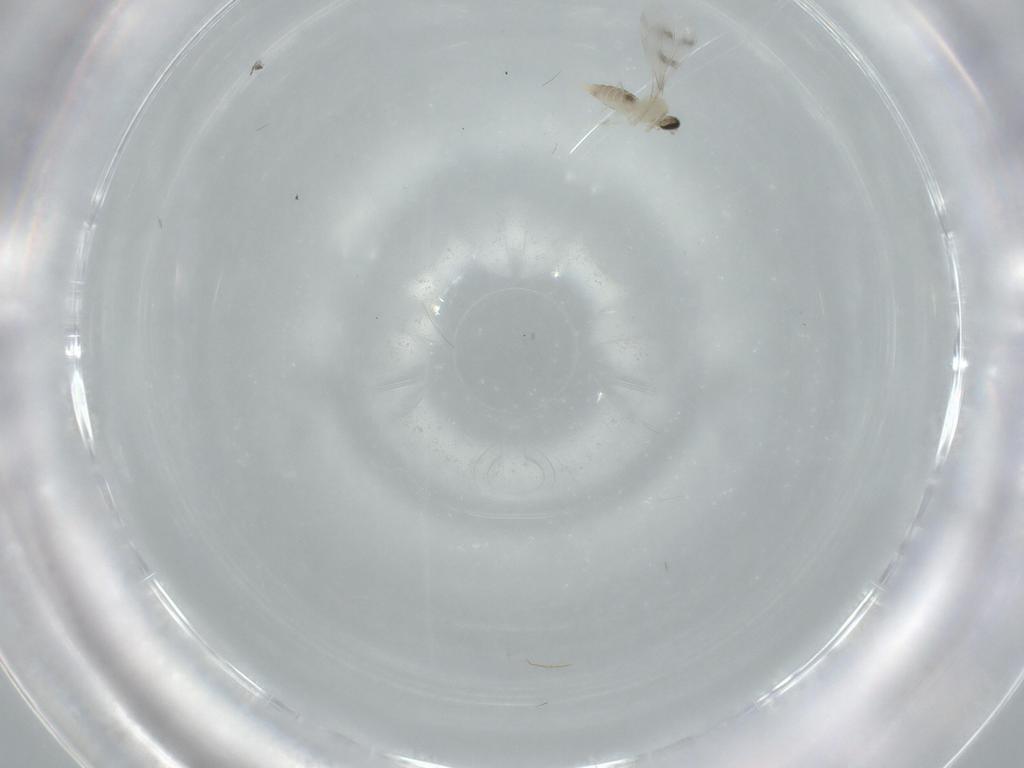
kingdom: Animalia
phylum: Arthropoda
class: Insecta
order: Diptera
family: Cecidomyiidae
